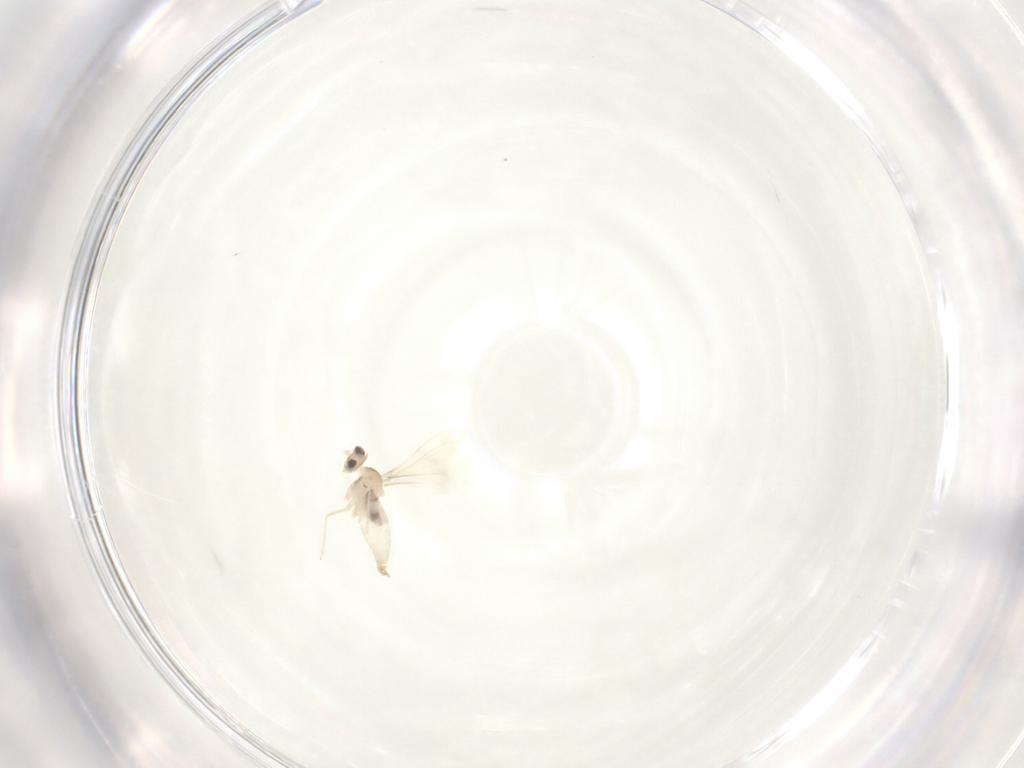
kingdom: Animalia
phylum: Arthropoda
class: Insecta
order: Diptera
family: Cecidomyiidae
